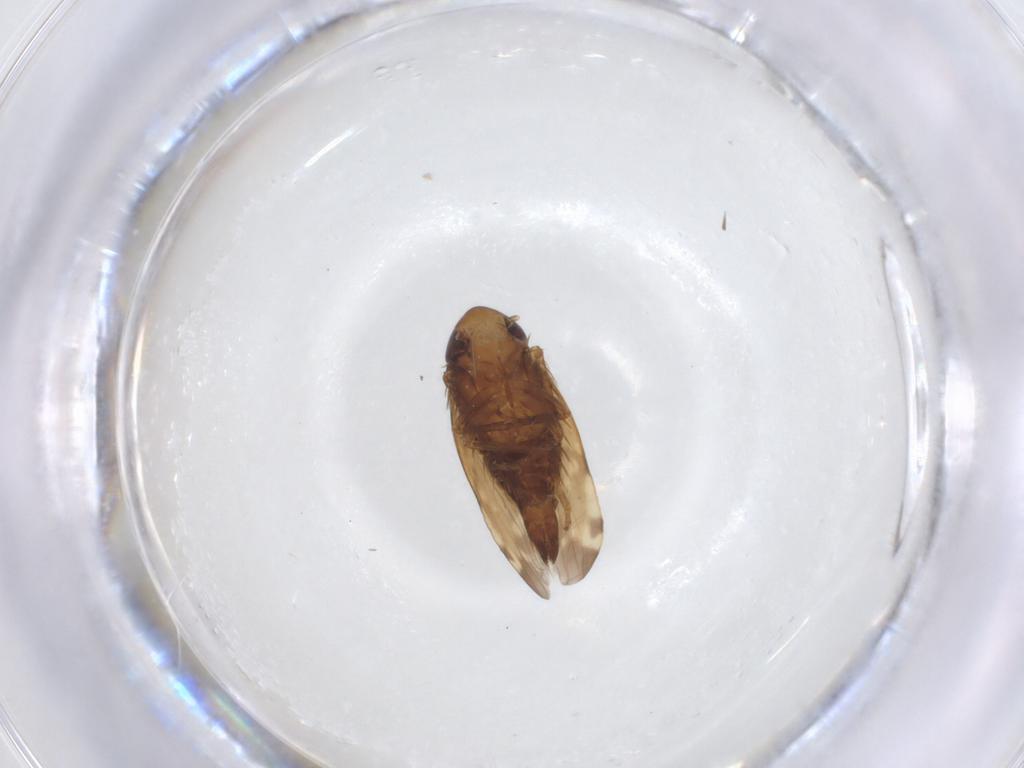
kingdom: Animalia
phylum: Arthropoda
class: Insecta
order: Hemiptera
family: Cicadellidae
